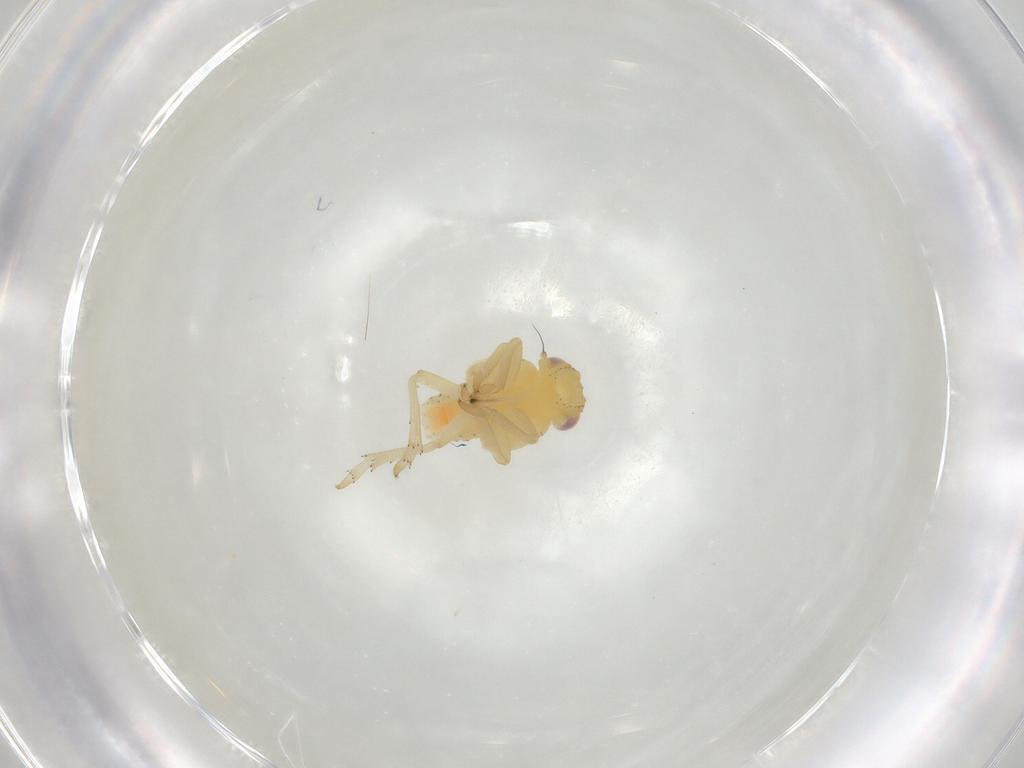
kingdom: Animalia
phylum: Arthropoda
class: Insecta
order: Hemiptera
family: Tropiduchidae
